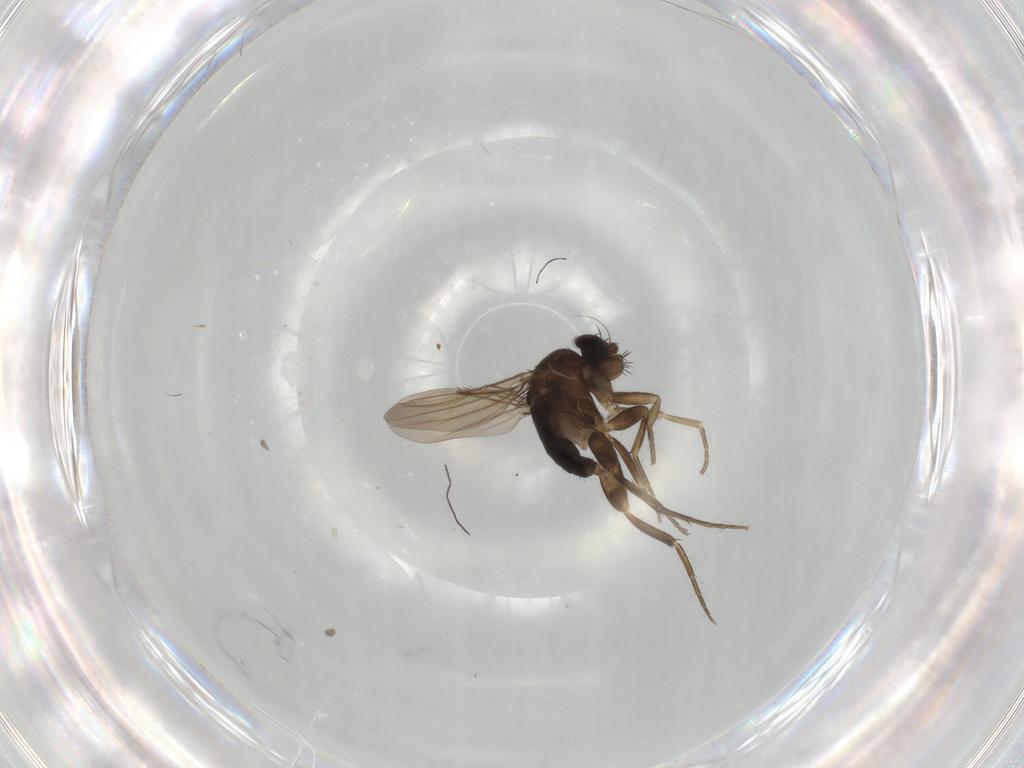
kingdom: Animalia
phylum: Arthropoda
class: Insecta
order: Diptera
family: Phoridae
